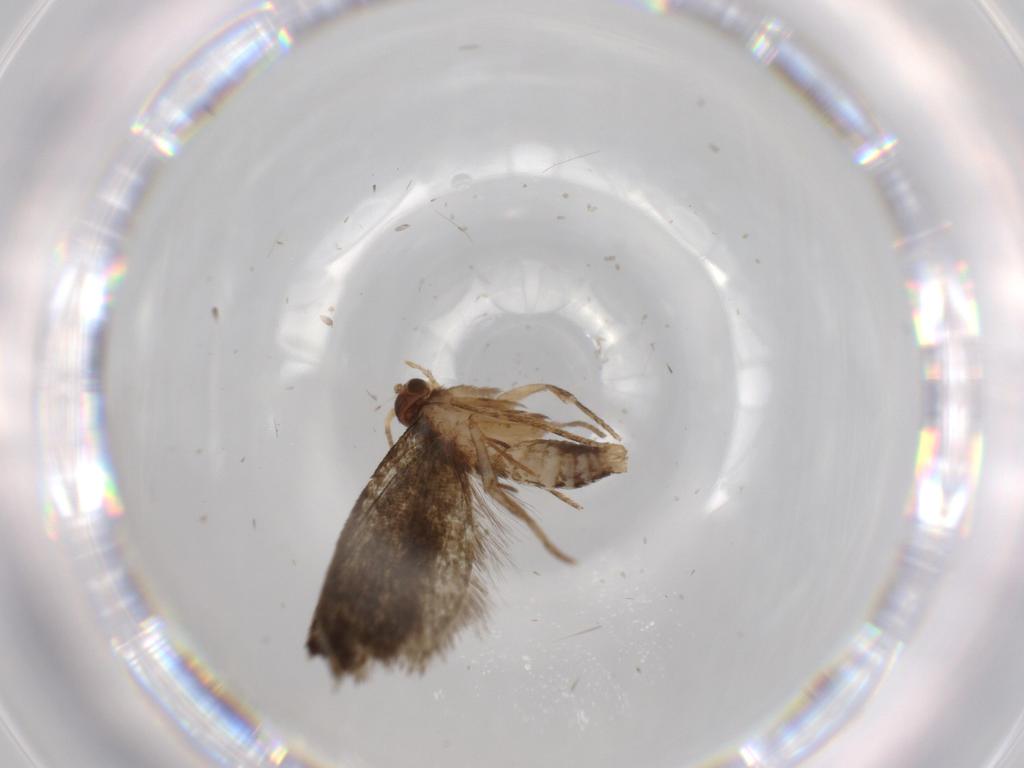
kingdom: Animalia
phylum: Arthropoda
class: Insecta
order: Lepidoptera
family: Tineidae
